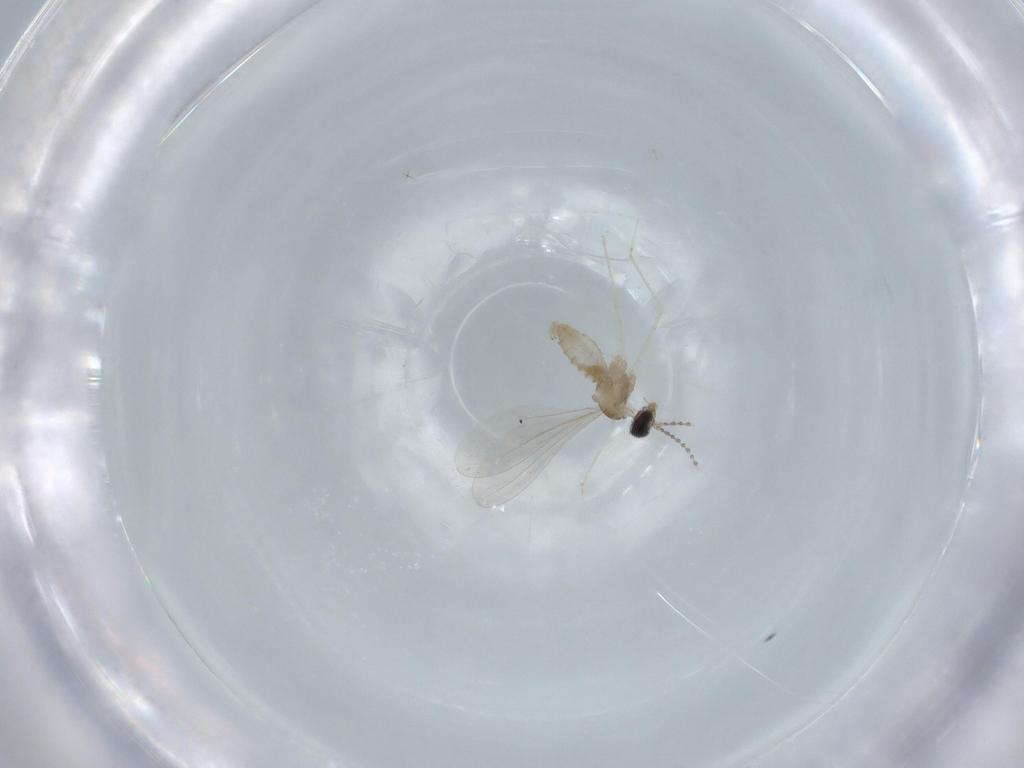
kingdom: Animalia
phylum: Arthropoda
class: Insecta
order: Diptera
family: Cecidomyiidae
